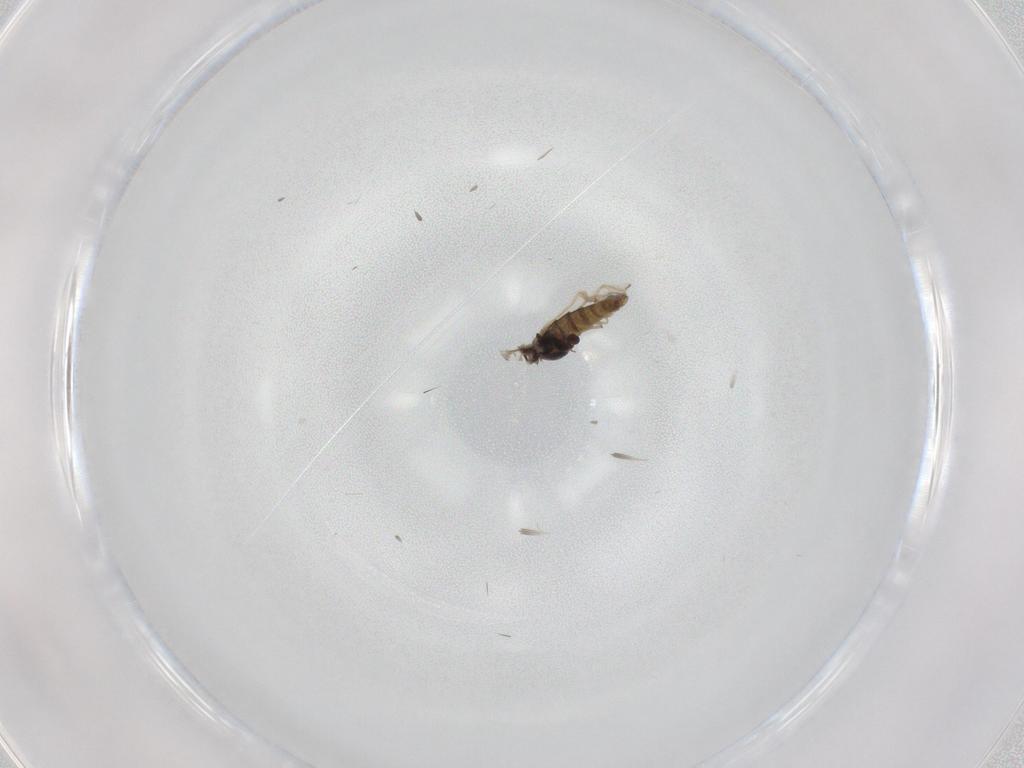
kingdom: Animalia
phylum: Arthropoda
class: Insecta
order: Diptera
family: Chironomidae
